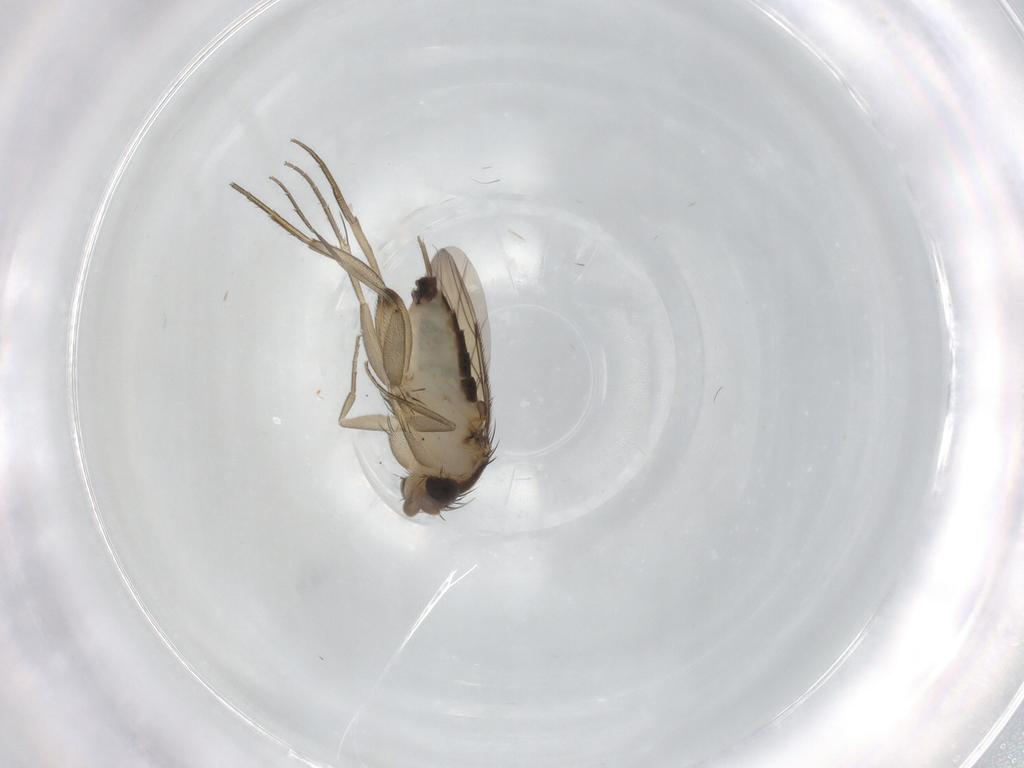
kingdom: Animalia
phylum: Arthropoda
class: Insecta
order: Diptera
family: Phoridae
